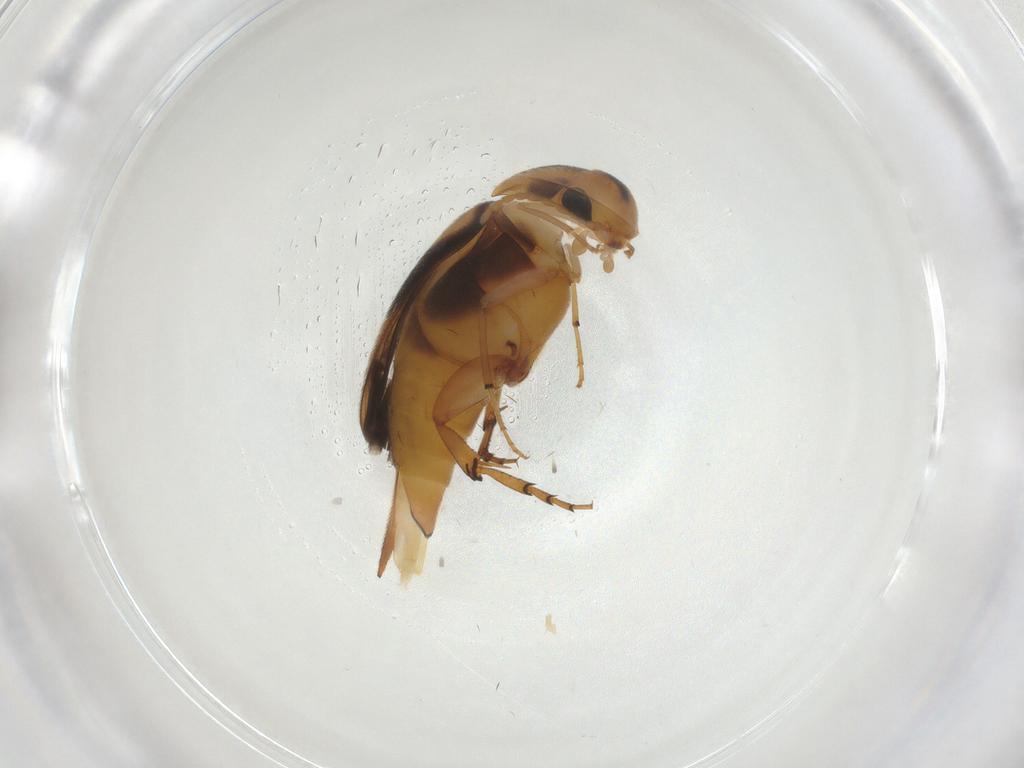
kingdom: Animalia
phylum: Arthropoda
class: Insecta
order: Coleoptera
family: Mordellidae
